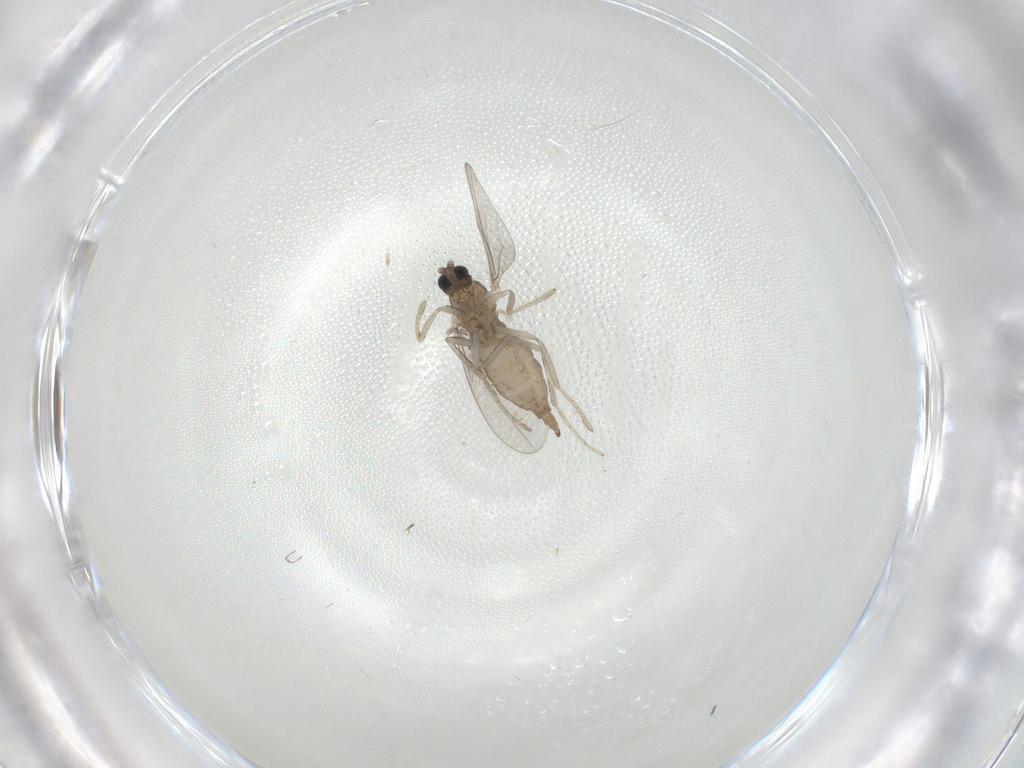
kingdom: Animalia
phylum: Arthropoda
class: Insecta
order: Diptera
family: Cecidomyiidae
